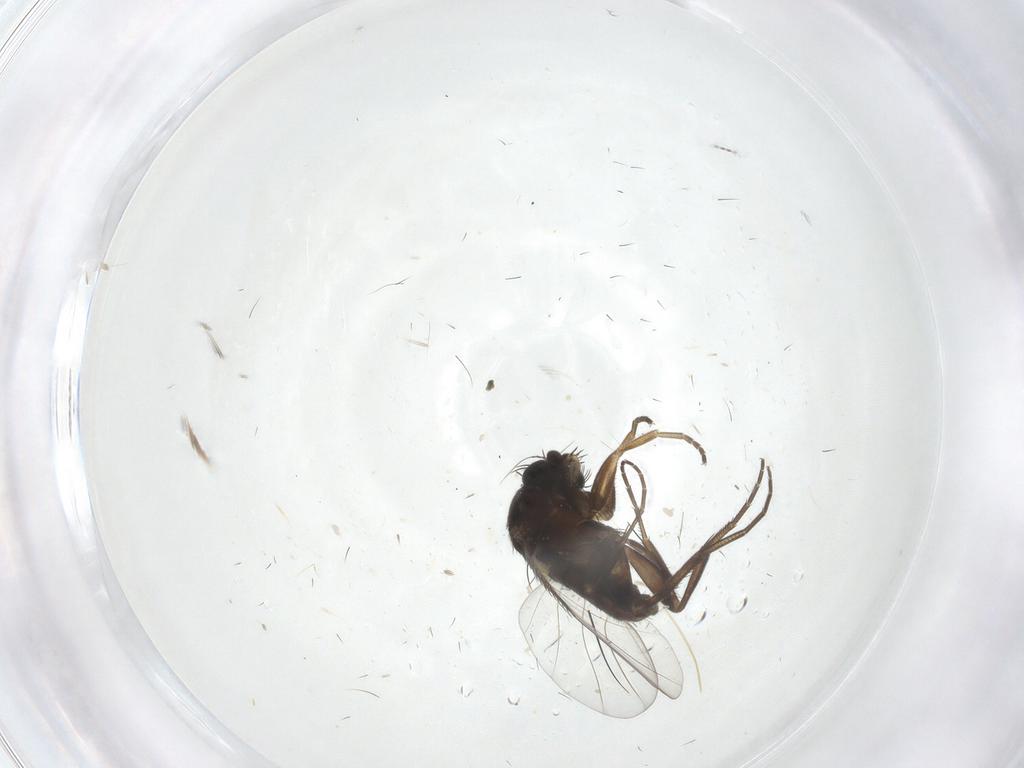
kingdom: Animalia
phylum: Arthropoda
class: Insecta
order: Diptera
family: Phoridae
